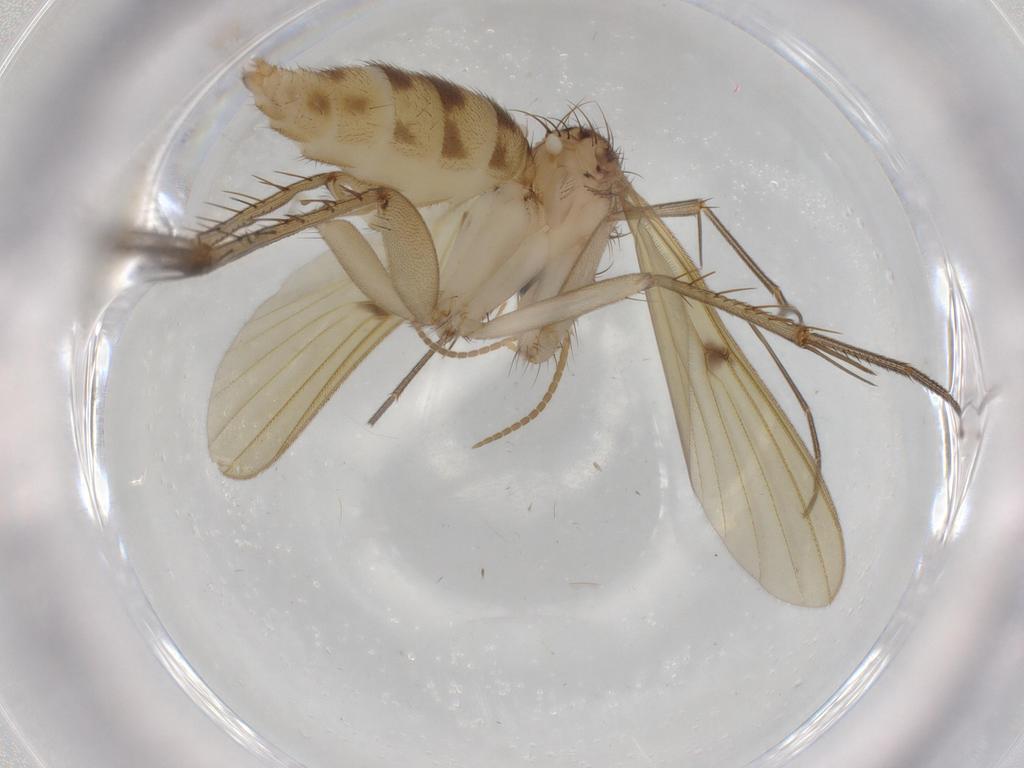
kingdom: Animalia
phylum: Arthropoda
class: Insecta
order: Diptera
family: Mycetophilidae
